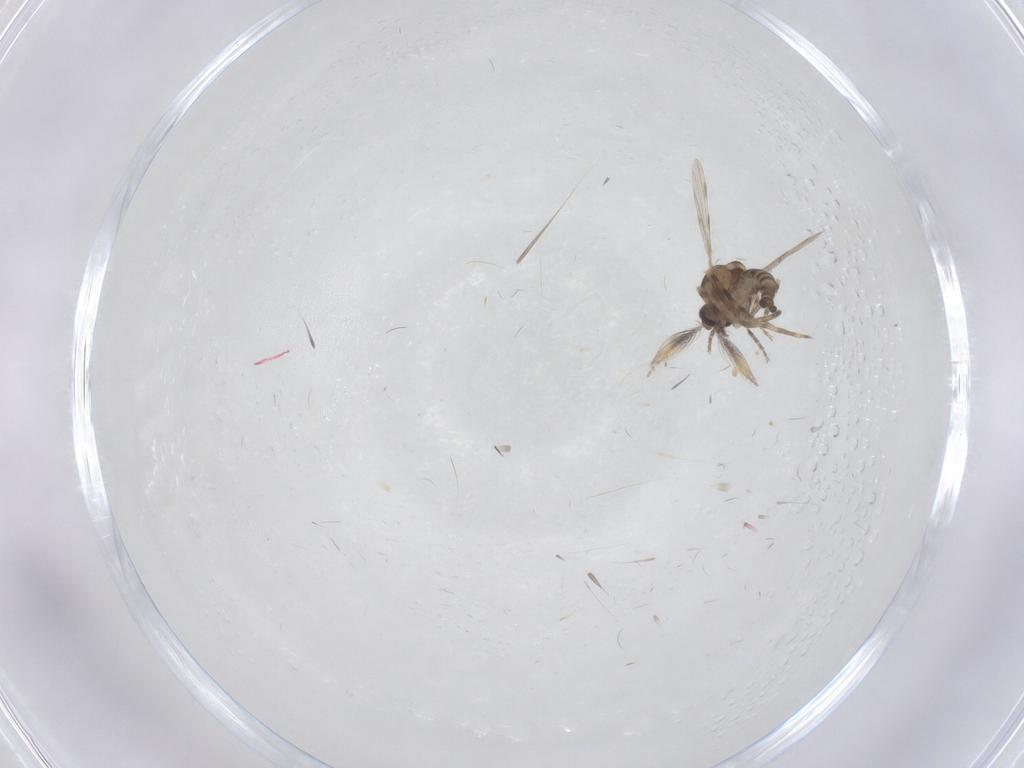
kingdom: Animalia
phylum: Arthropoda
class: Insecta
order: Diptera
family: Ceratopogonidae
